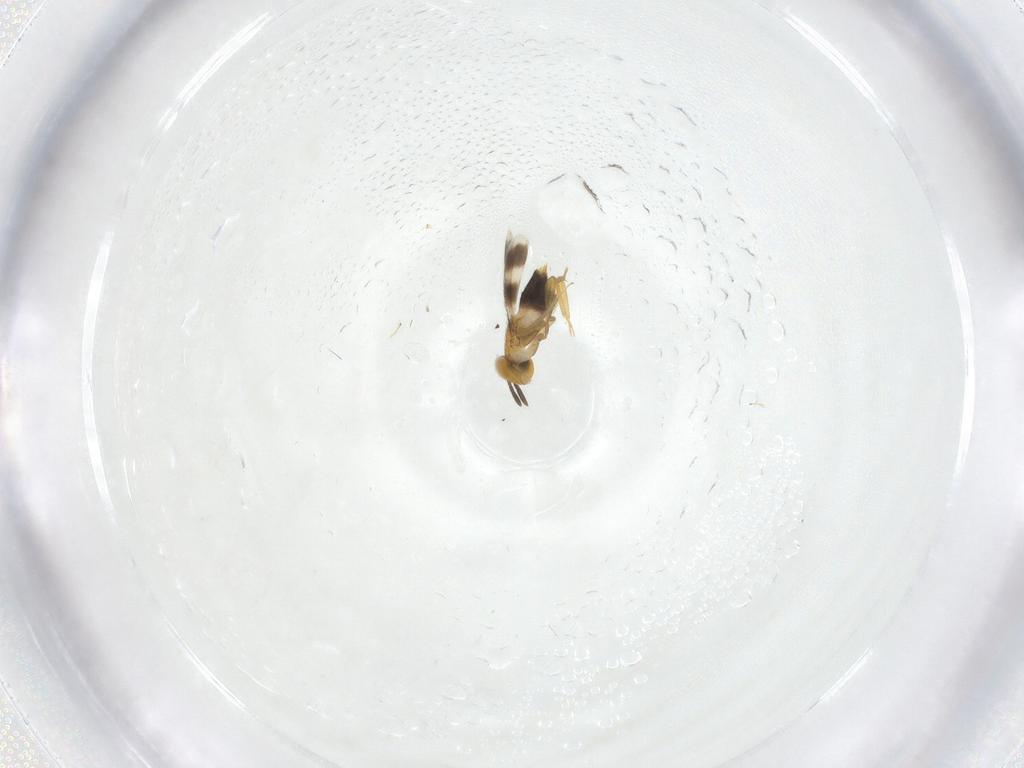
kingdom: Animalia
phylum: Arthropoda
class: Insecta
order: Hymenoptera
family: Aphelinidae
